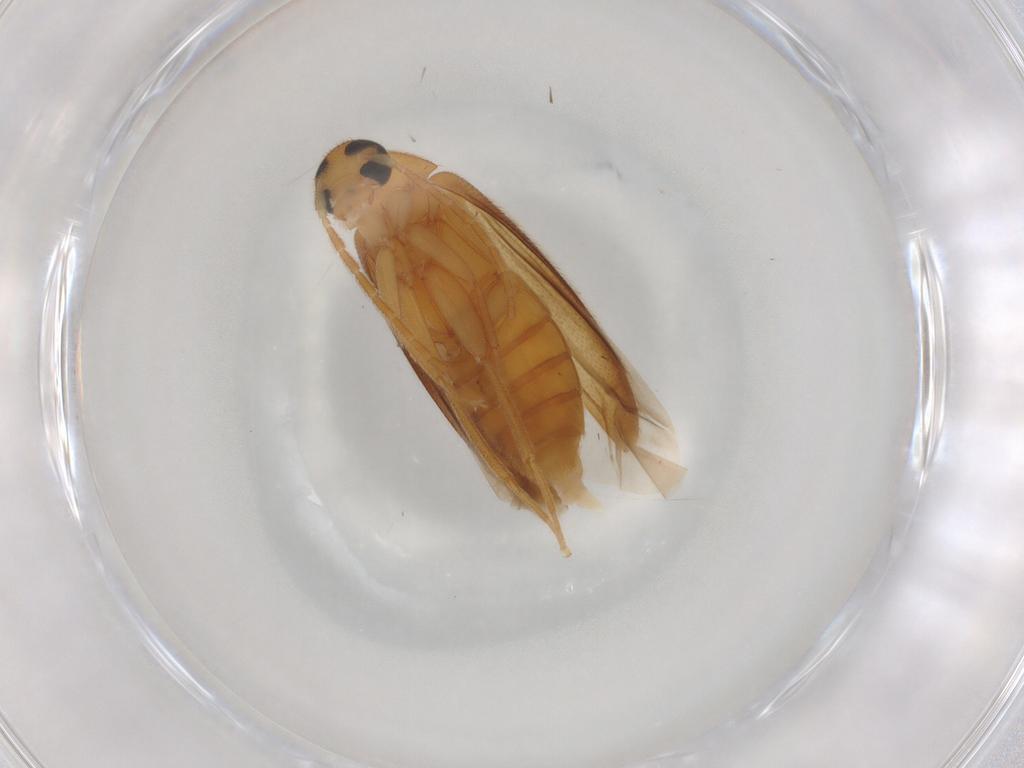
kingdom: Animalia
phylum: Arthropoda
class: Insecta
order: Coleoptera
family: Scraptiidae
